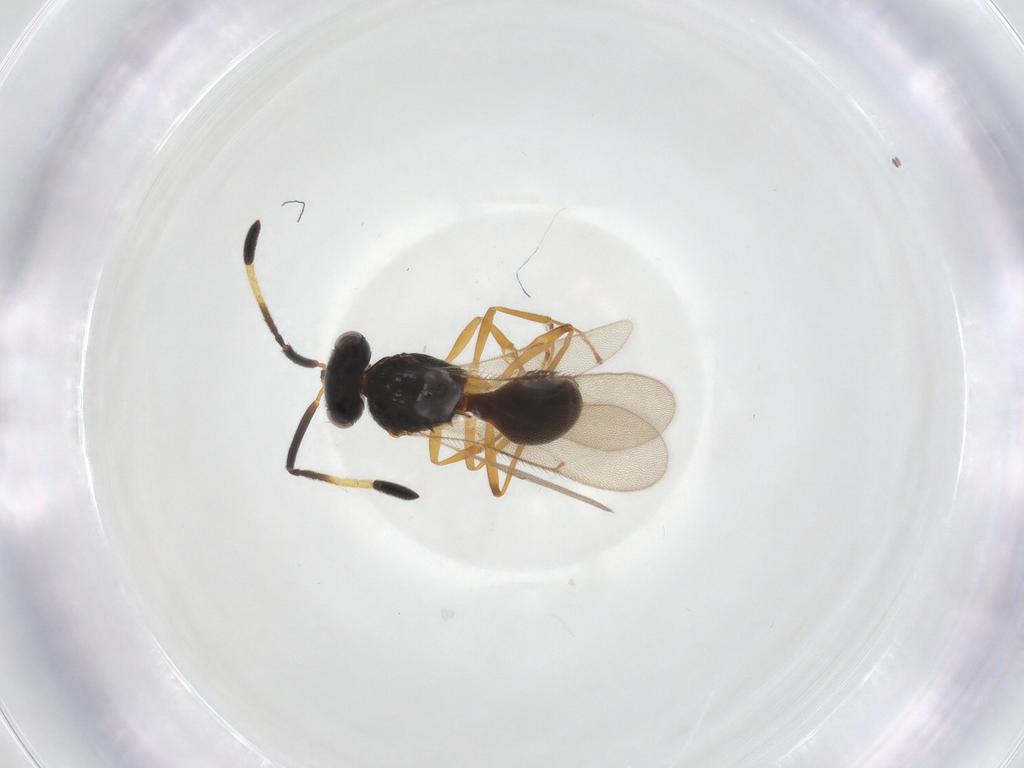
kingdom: Animalia
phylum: Arthropoda
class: Insecta
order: Hymenoptera
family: Scelionidae
